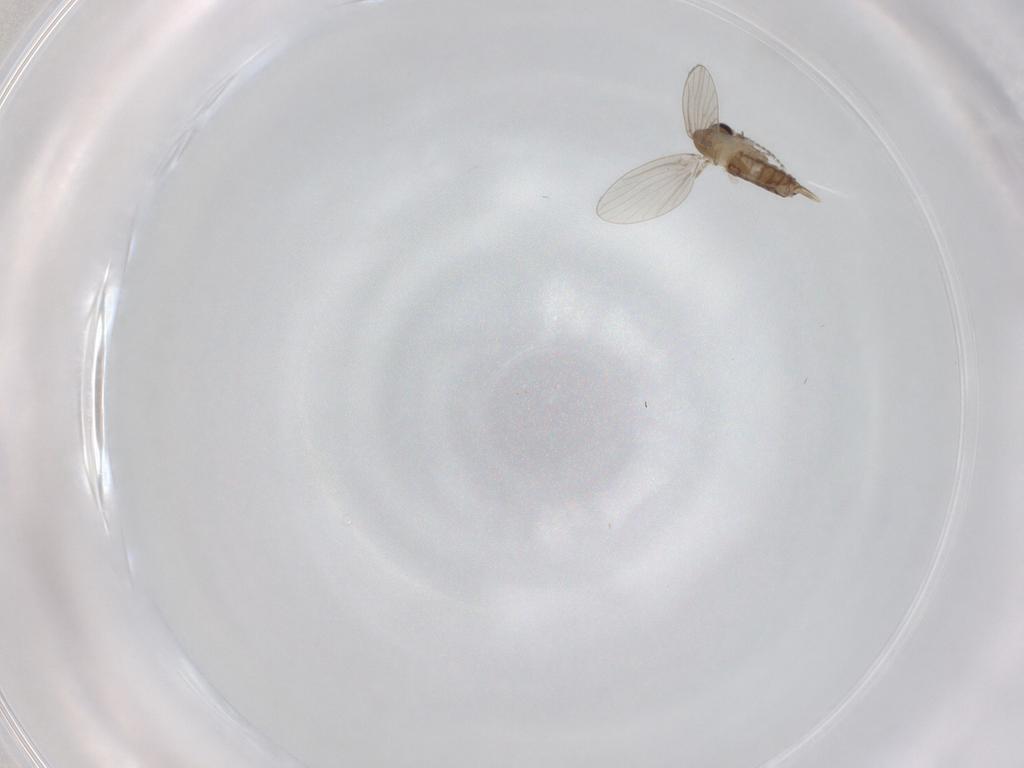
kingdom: Animalia
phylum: Arthropoda
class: Insecta
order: Diptera
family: Psychodidae
